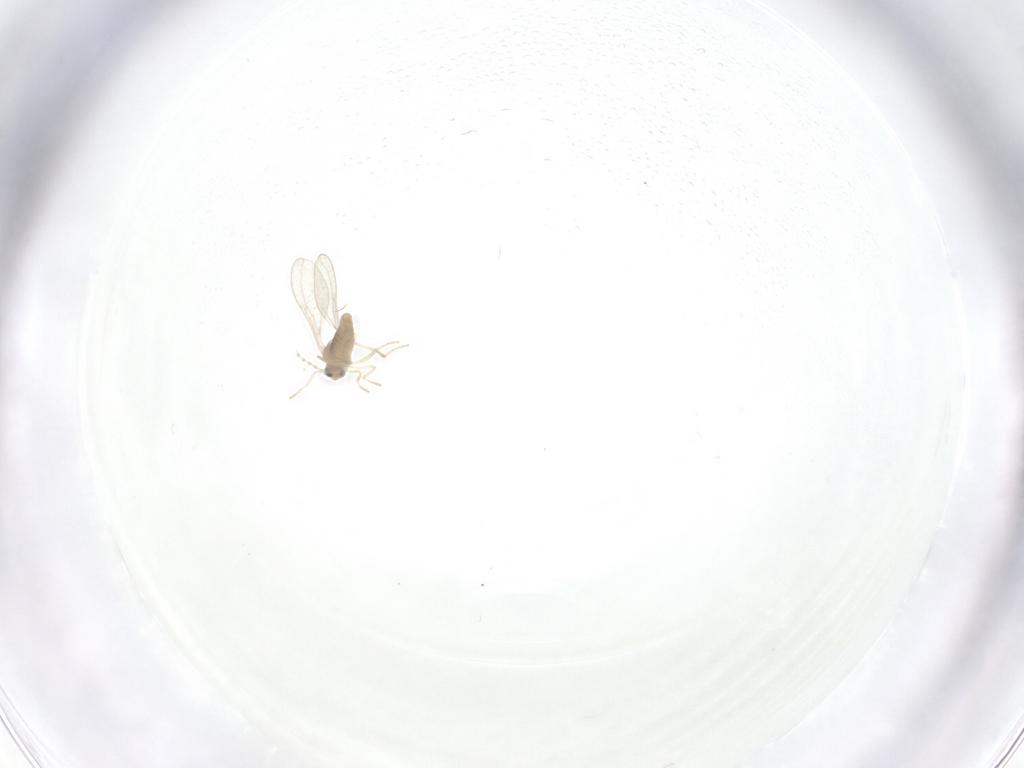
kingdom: Animalia
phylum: Arthropoda
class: Insecta
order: Diptera
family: Cecidomyiidae
